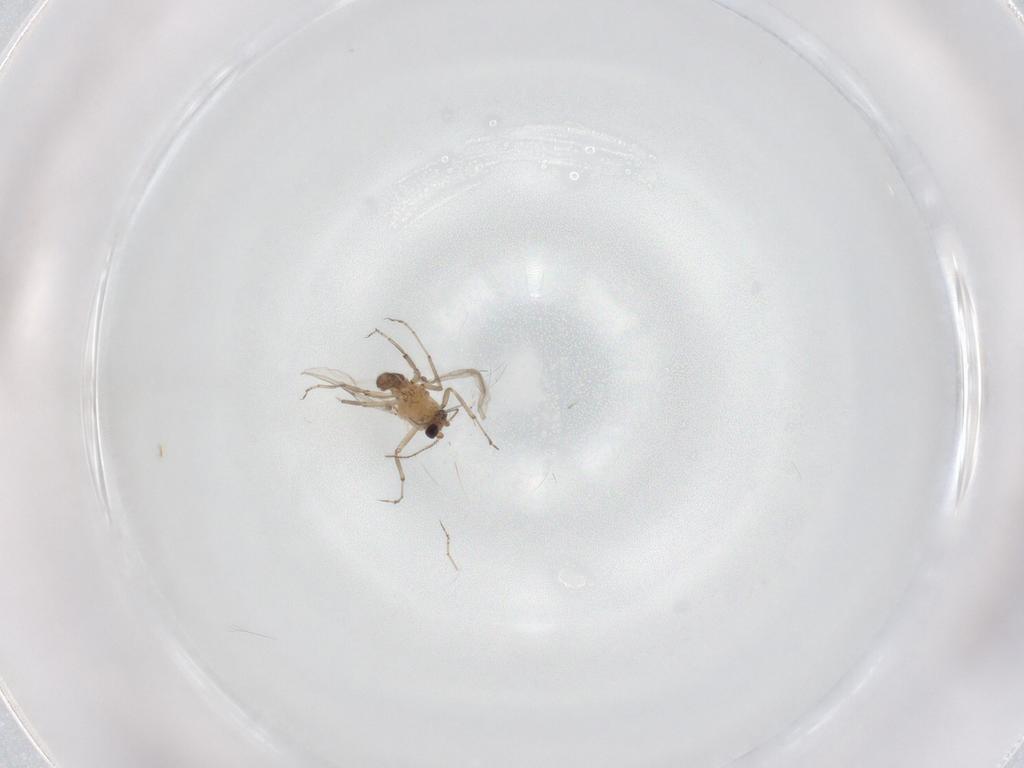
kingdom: Animalia
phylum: Arthropoda
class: Insecta
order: Diptera
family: Ceratopogonidae
